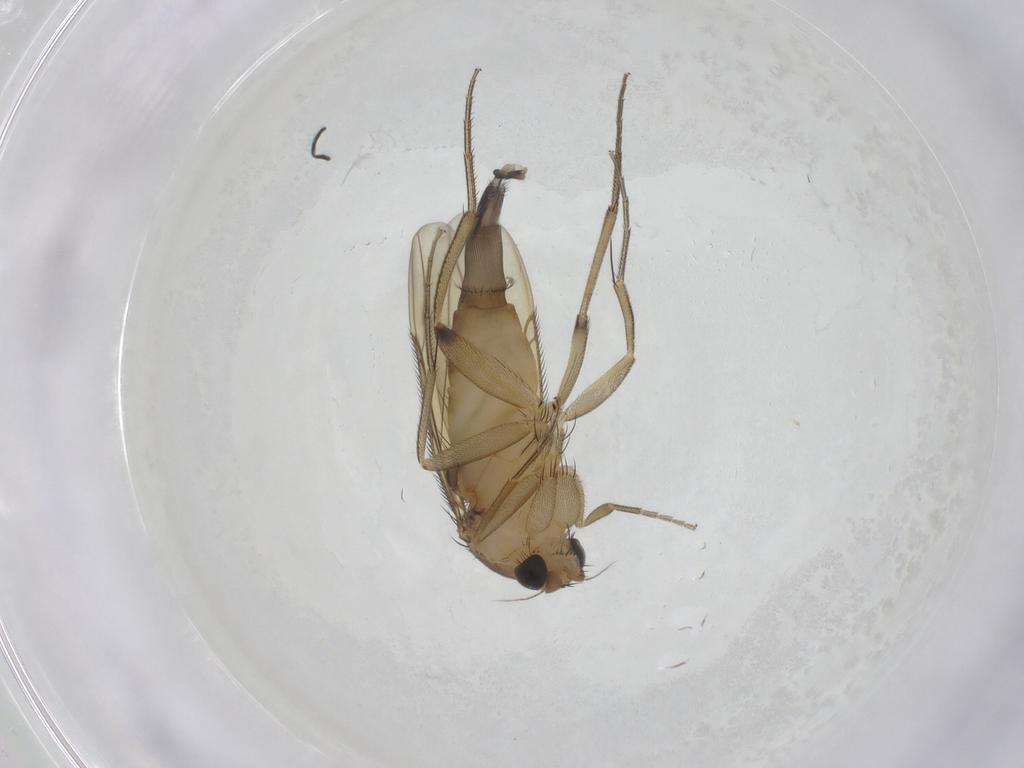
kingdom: Animalia
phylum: Arthropoda
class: Insecta
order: Diptera
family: Phoridae
